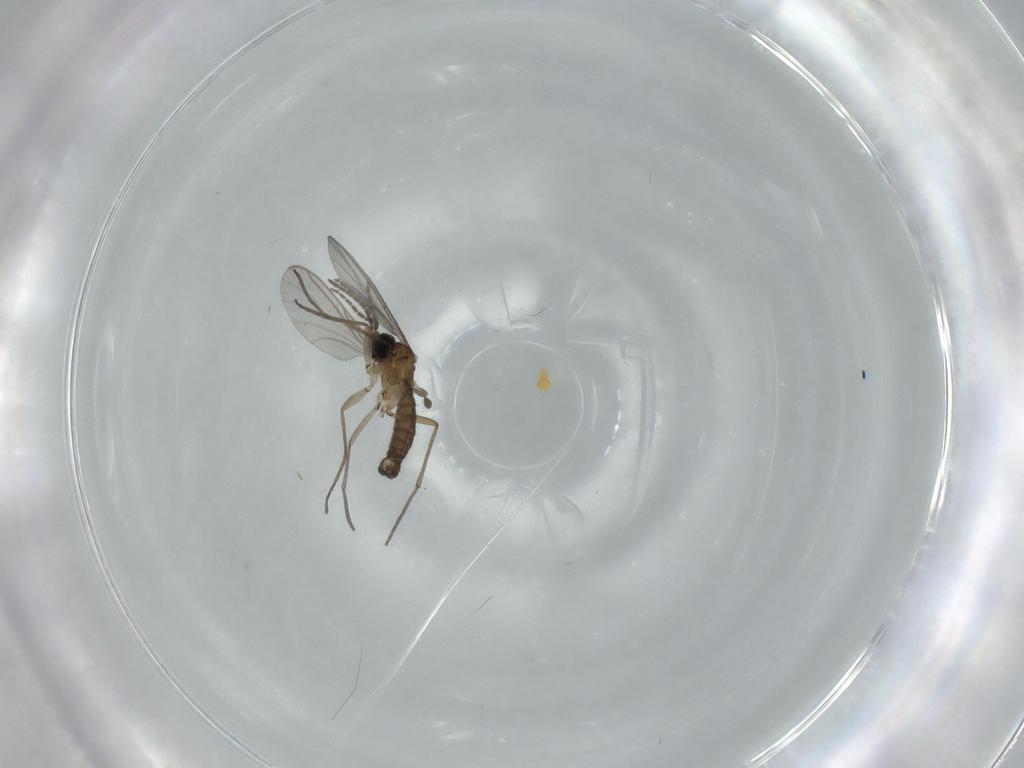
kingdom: Animalia
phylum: Arthropoda
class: Insecta
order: Diptera
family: Sciaridae
